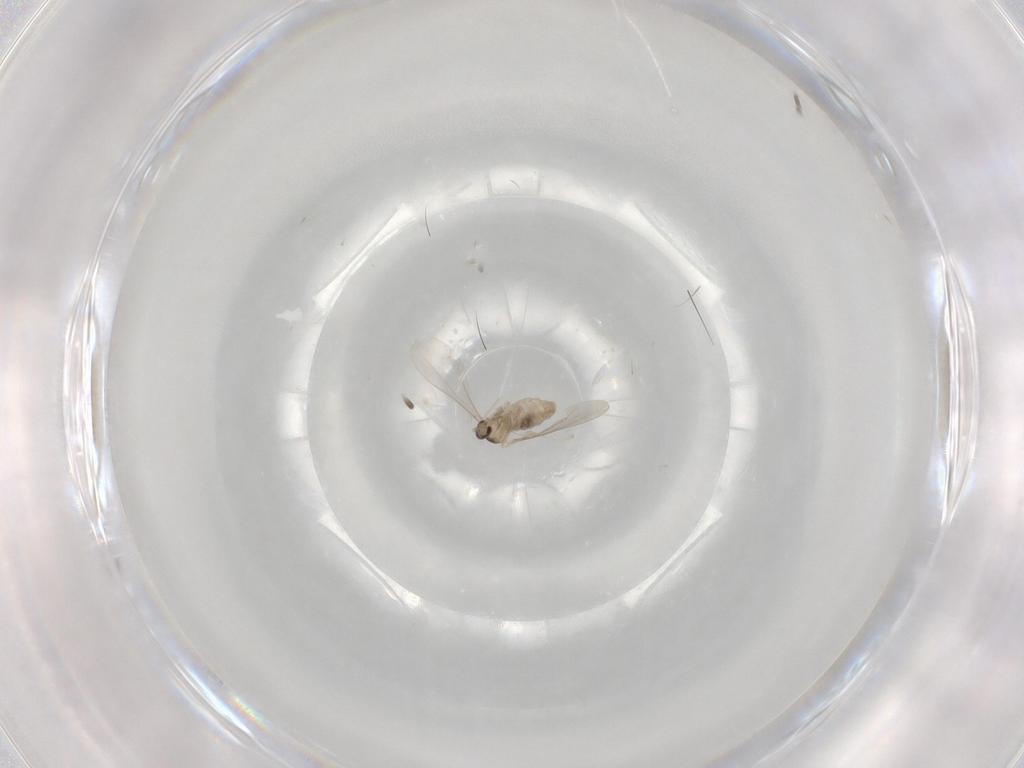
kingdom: Animalia
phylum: Arthropoda
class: Insecta
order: Diptera
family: Cecidomyiidae
